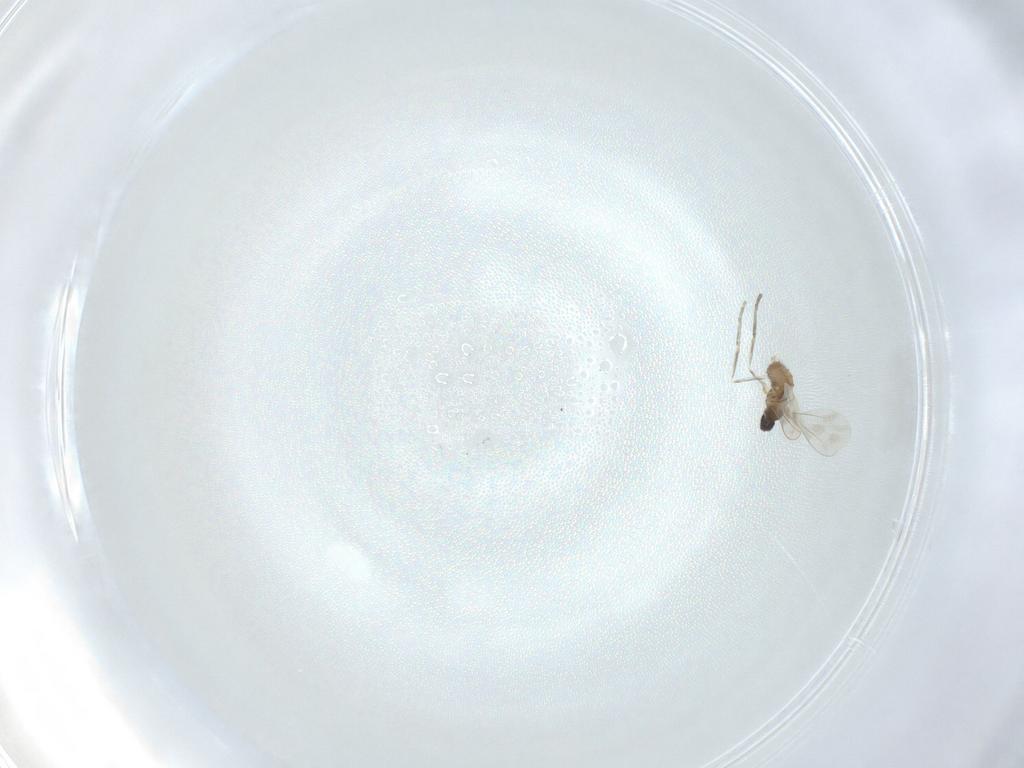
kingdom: Animalia
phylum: Arthropoda
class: Insecta
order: Diptera
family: Cecidomyiidae
